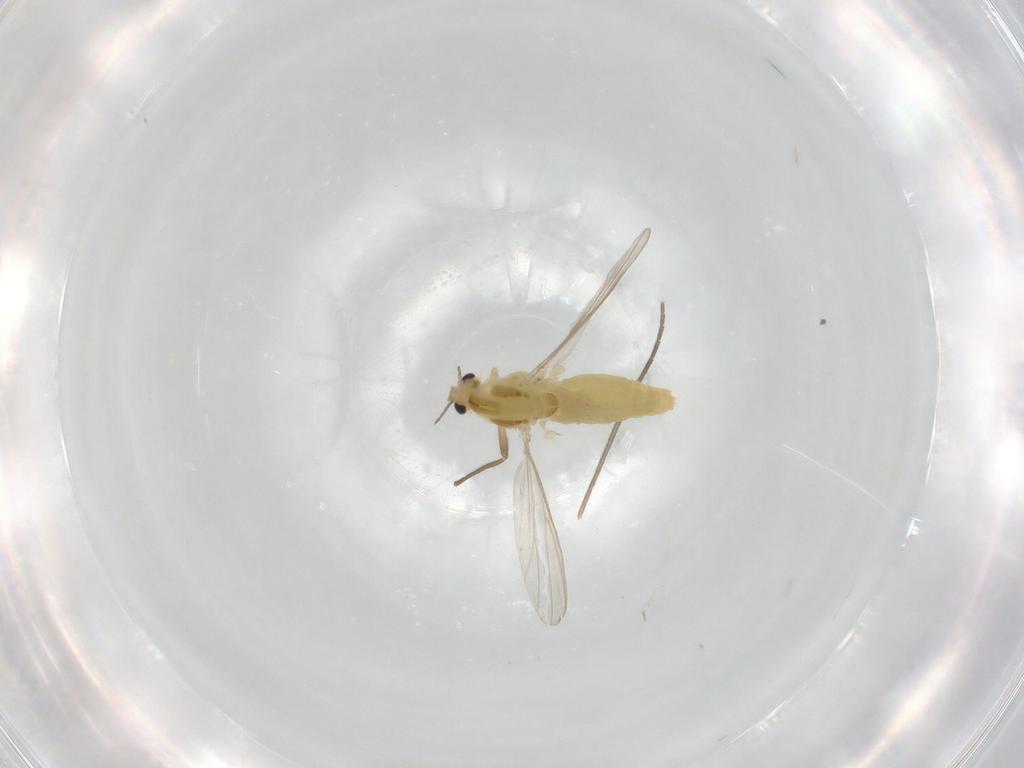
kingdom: Animalia
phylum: Arthropoda
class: Insecta
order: Diptera
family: Chironomidae
